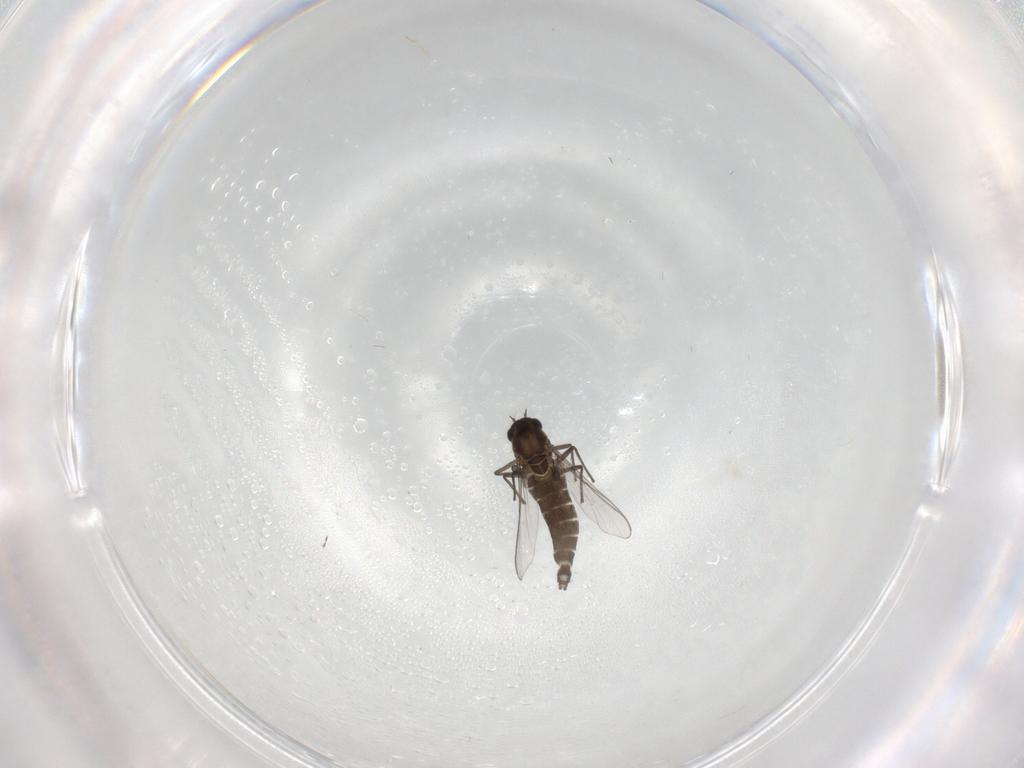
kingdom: Animalia
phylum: Arthropoda
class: Insecta
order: Diptera
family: Chironomidae
